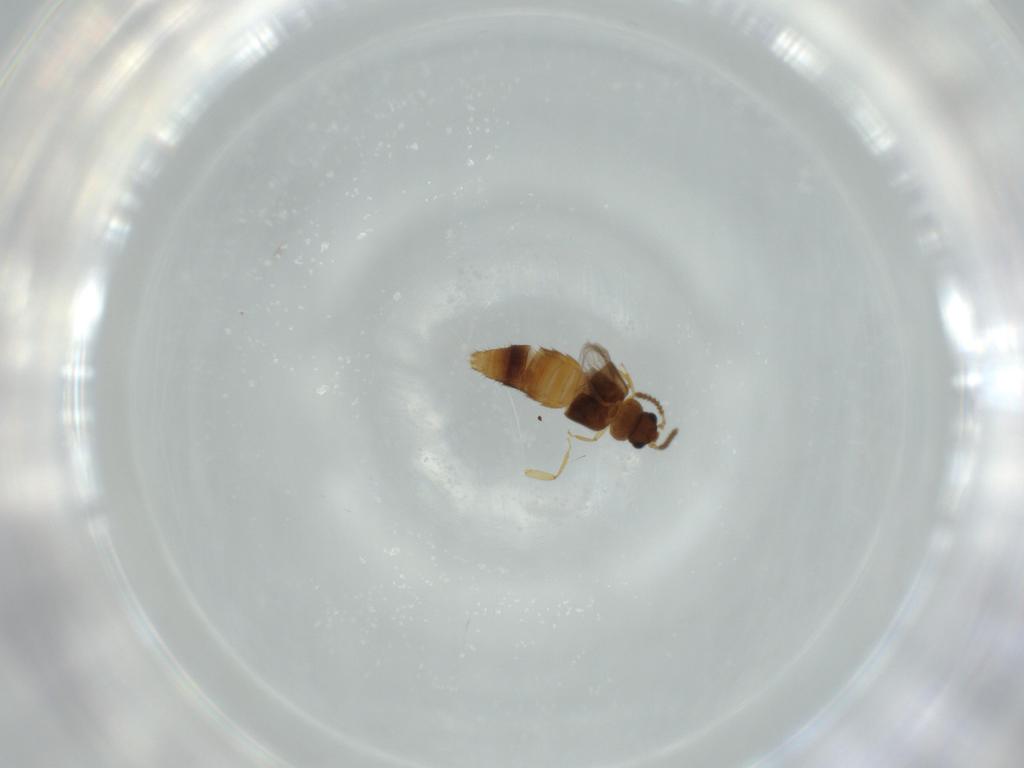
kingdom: Animalia
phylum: Arthropoda
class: Insecta
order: Coleoptera
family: Staphylinidae
